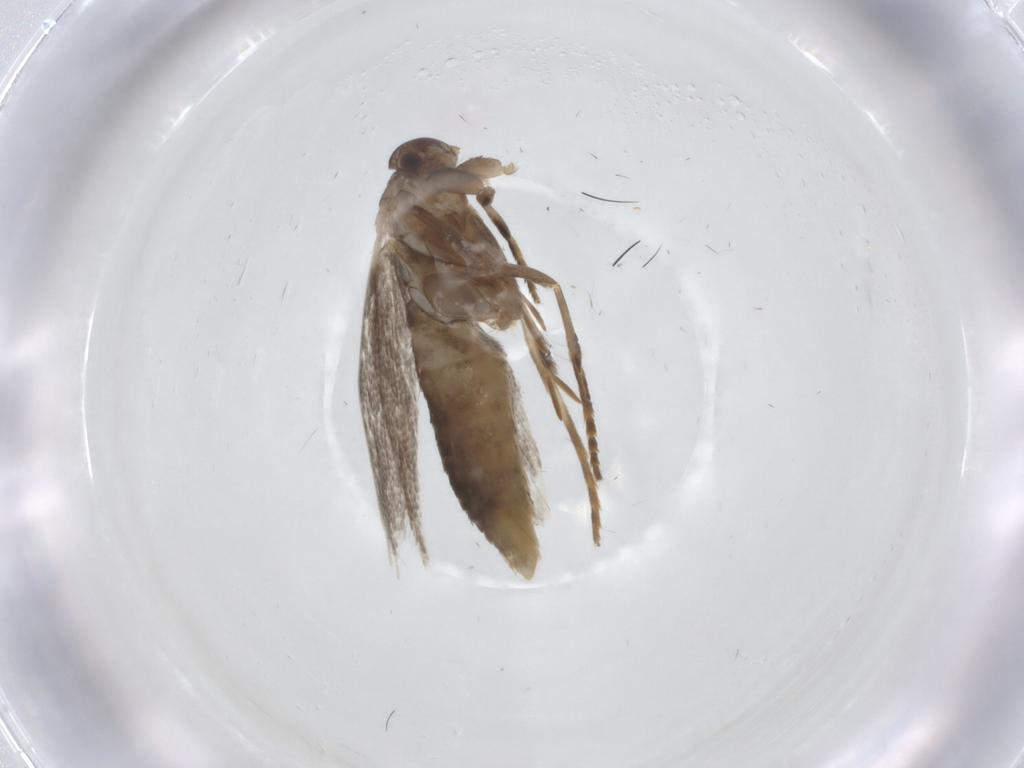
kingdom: Animalia
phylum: Arthropoda
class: Insecta
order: Lepidoptera
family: Elachistidae
